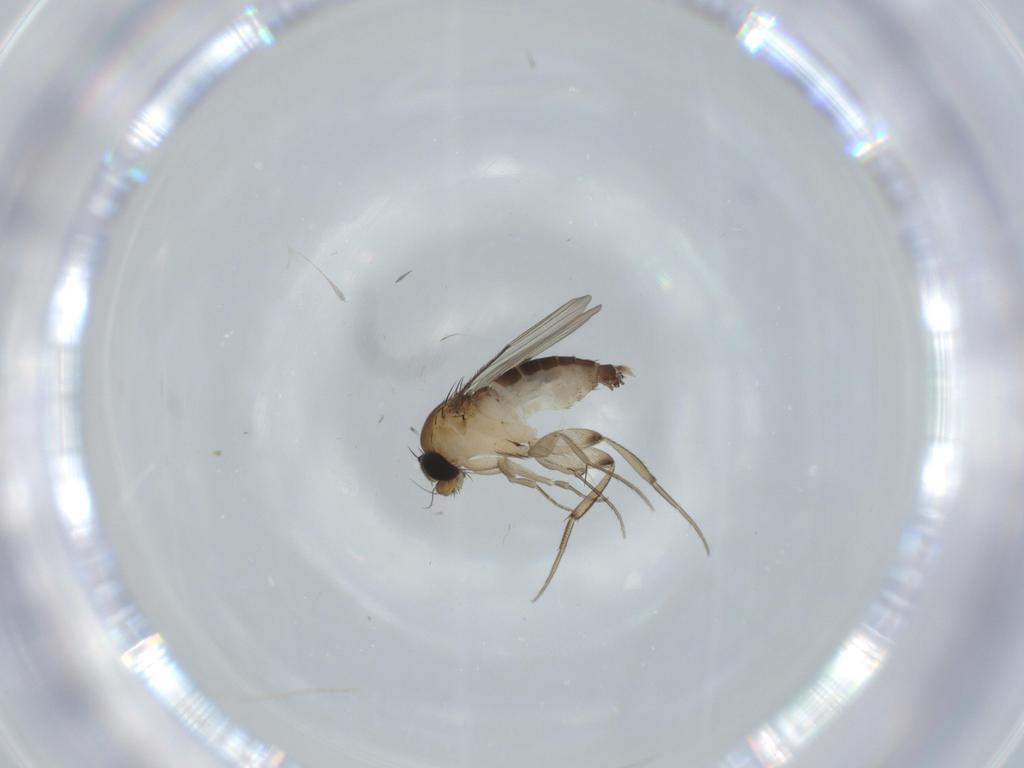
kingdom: Animalia
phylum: Arthropoda
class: Insecta
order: Diptera
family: Phoridae
